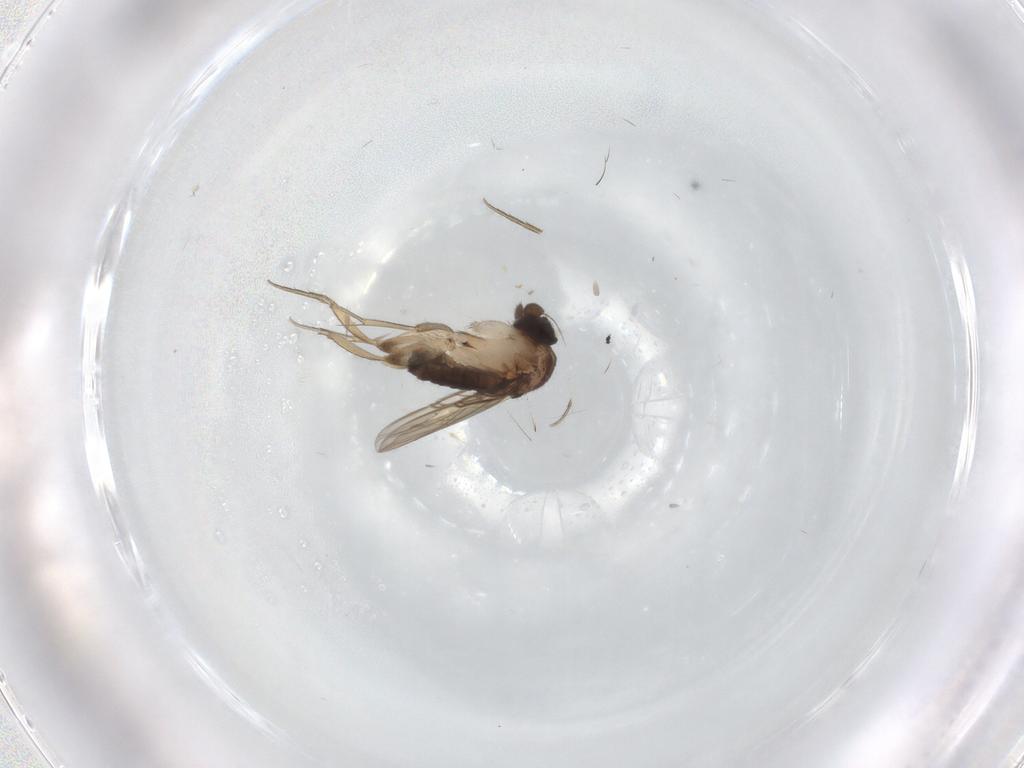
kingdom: Animalia
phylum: Arthropoda
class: Insecta
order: Diptera
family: Phoridae
